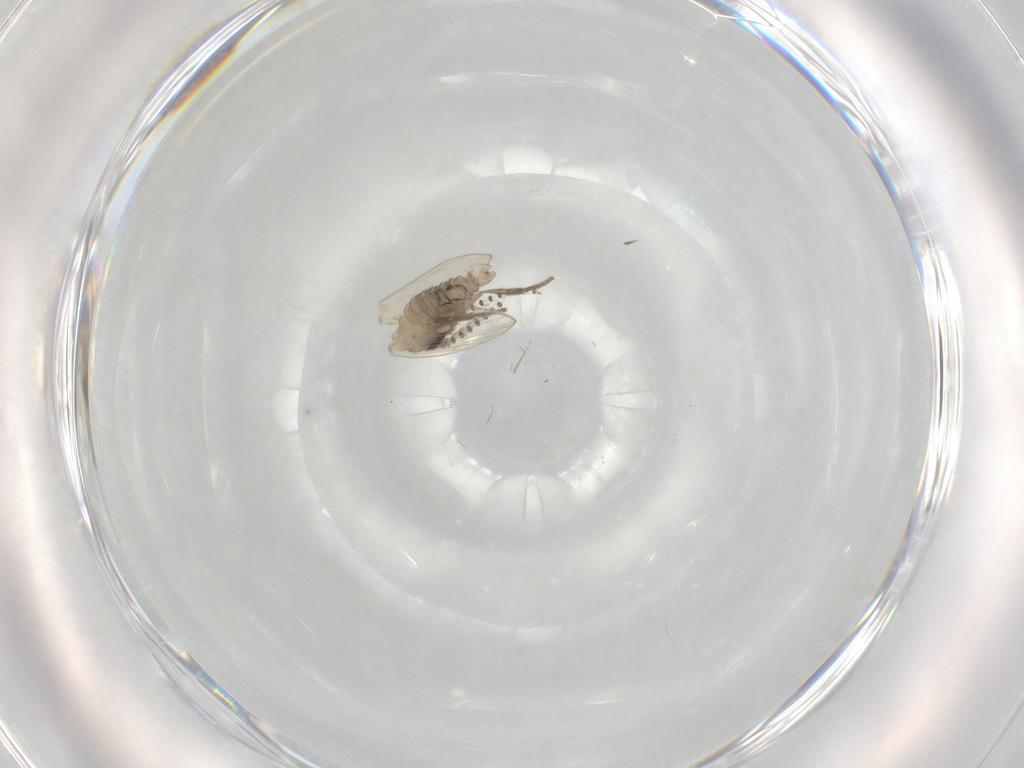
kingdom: Animalia
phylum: Arthropoda
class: Insecta
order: Diptera
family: Psychodidae
